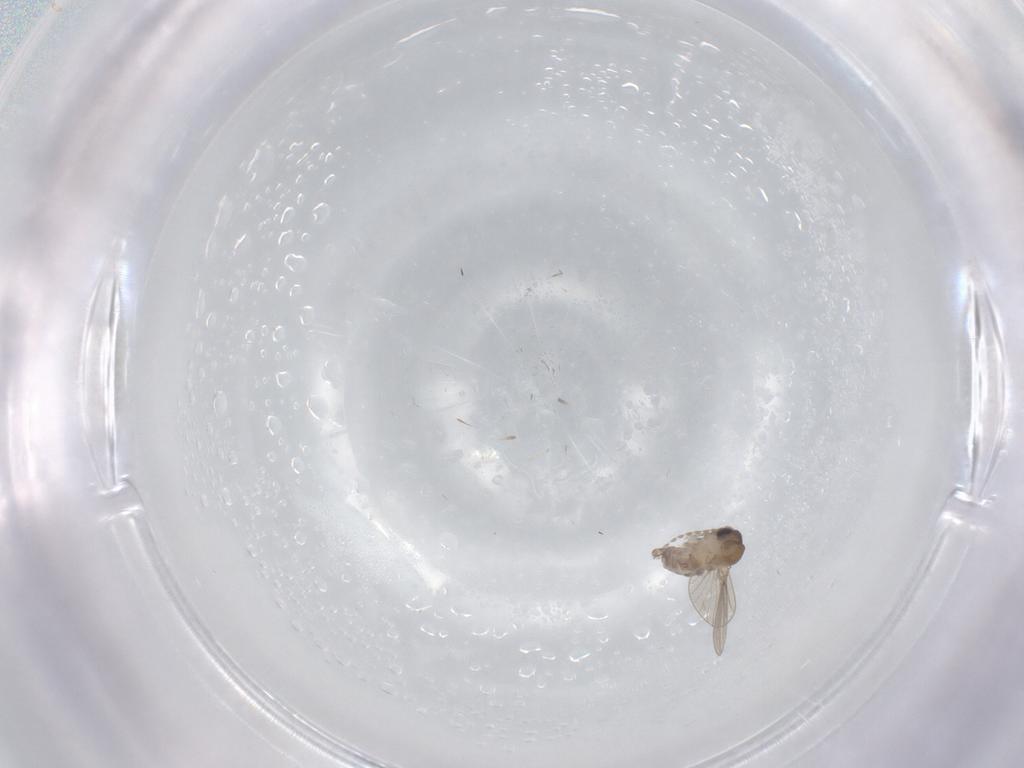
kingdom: Animalia
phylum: Arthropoda
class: Insecta
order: Diptera
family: Psychodidae
